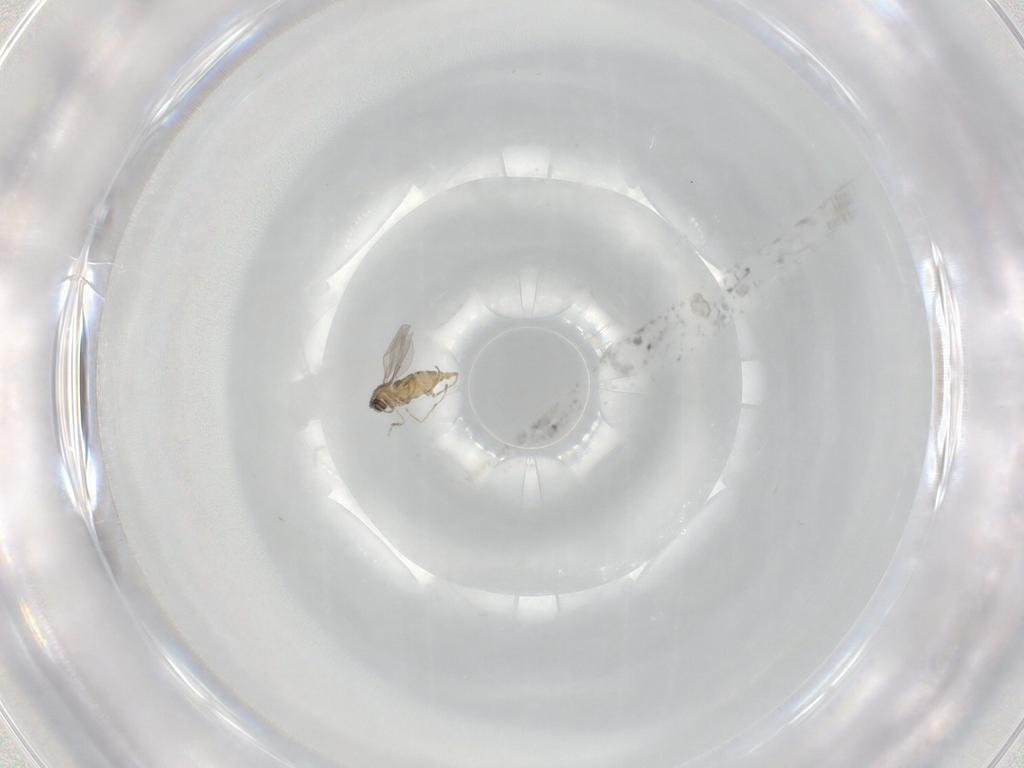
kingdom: Animalia
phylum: Arthropoda
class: Insecta
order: Diptera
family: Cecidomyiidae
